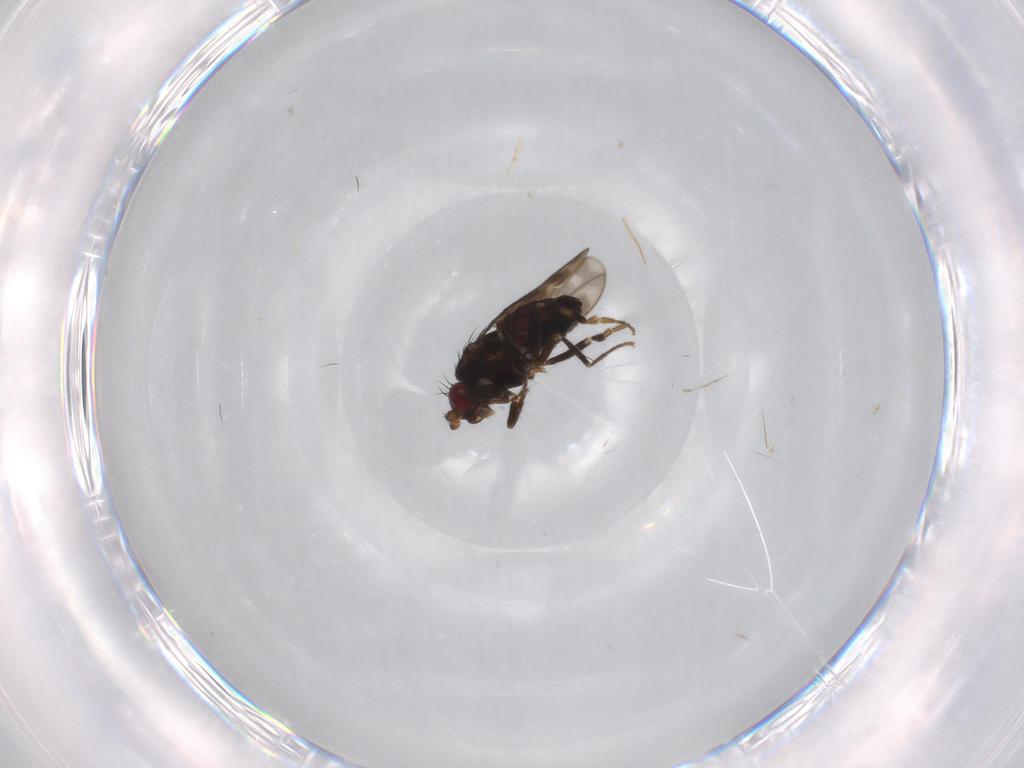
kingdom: Animalia
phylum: Arthropoda
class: Insecta
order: Diptera
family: Sphaeroceridae
